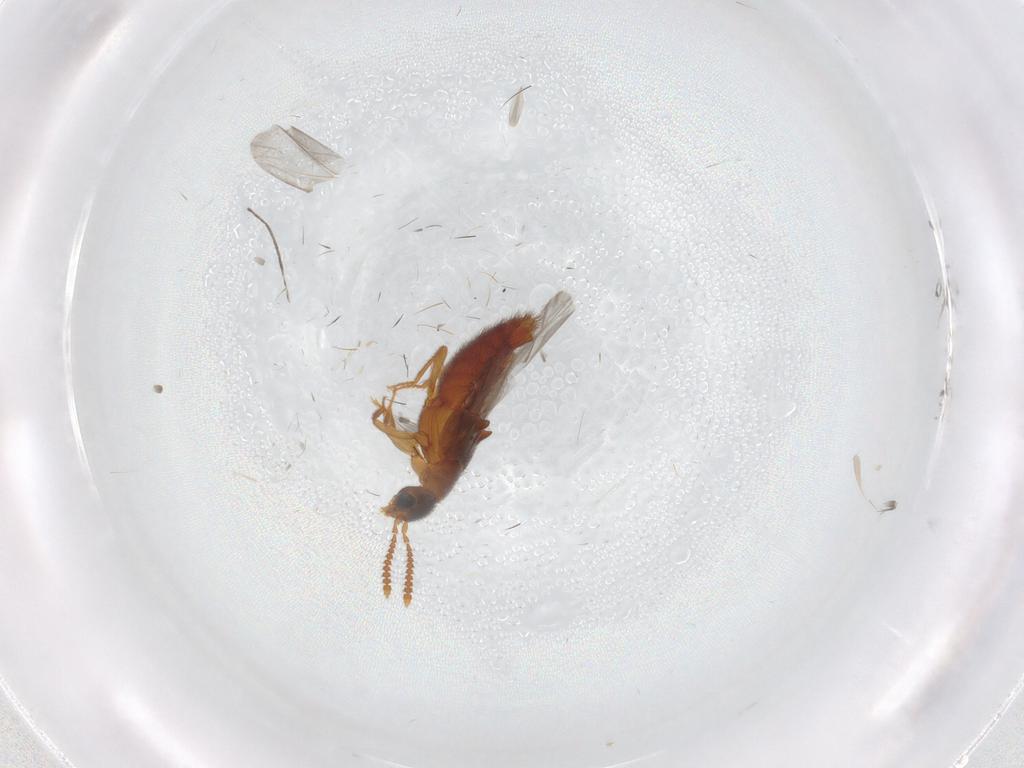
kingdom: Animalia
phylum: Arthropoda
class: Insecta
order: Coleoptera
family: Staphylinidae
